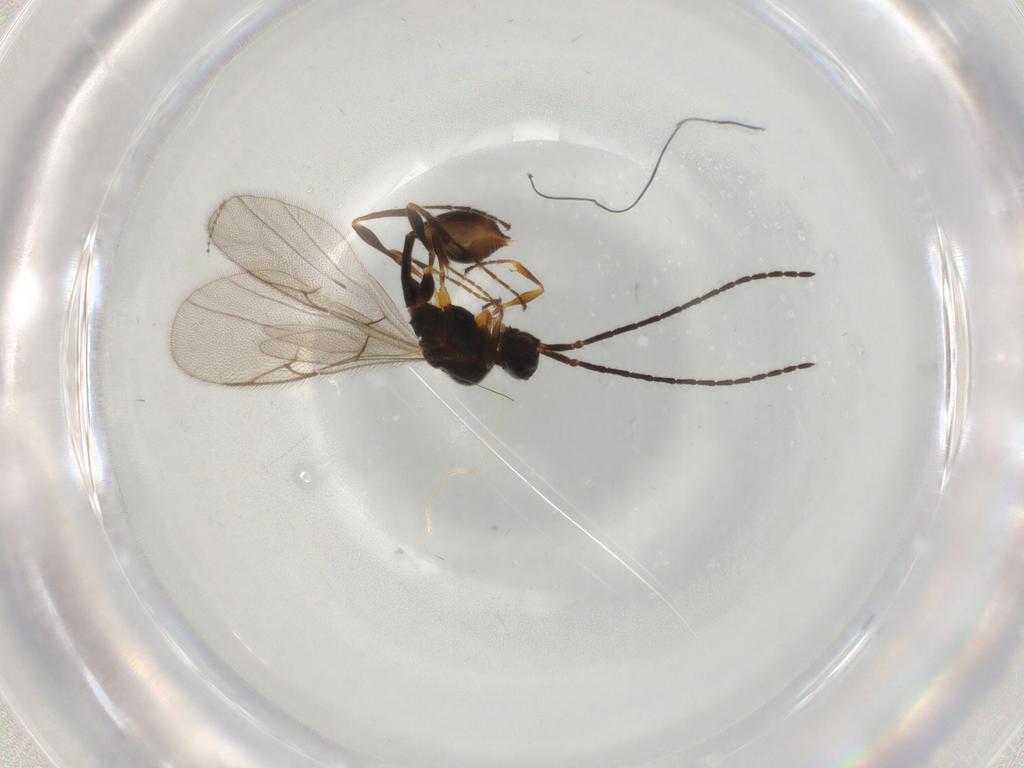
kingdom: Animalia
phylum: Arthropoda
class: Insecta
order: Hymenoptera
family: Diapriidae
